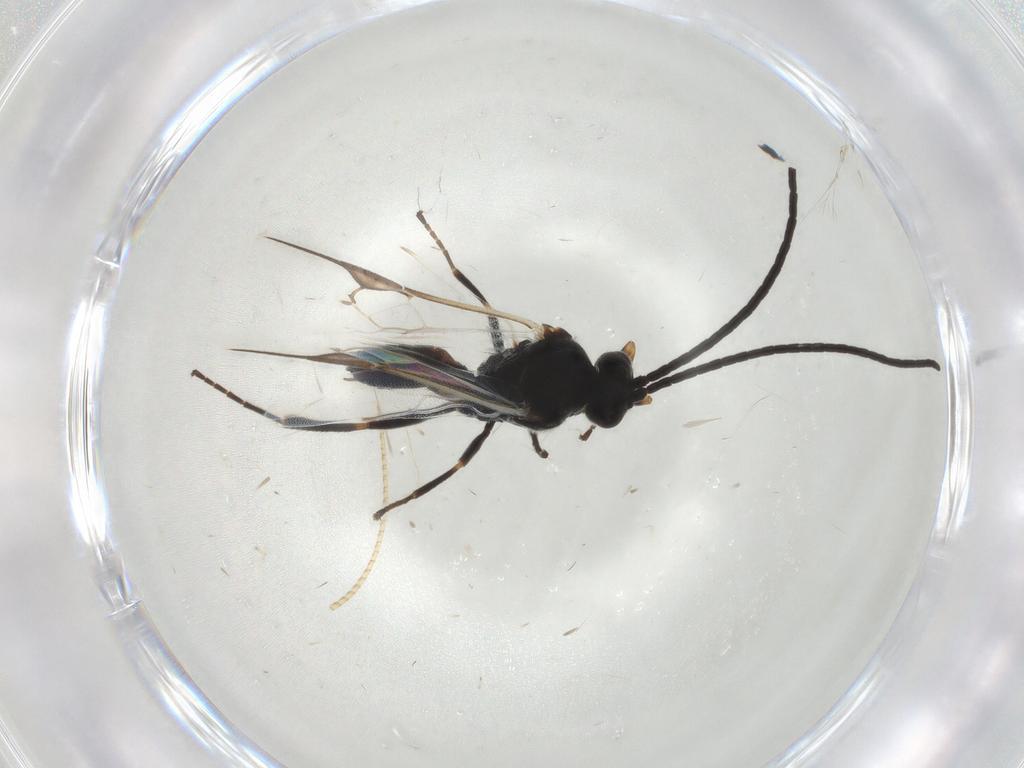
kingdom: Animalia
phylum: Arthropoda
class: Insecta
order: Hymenoptera
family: Braconidae
